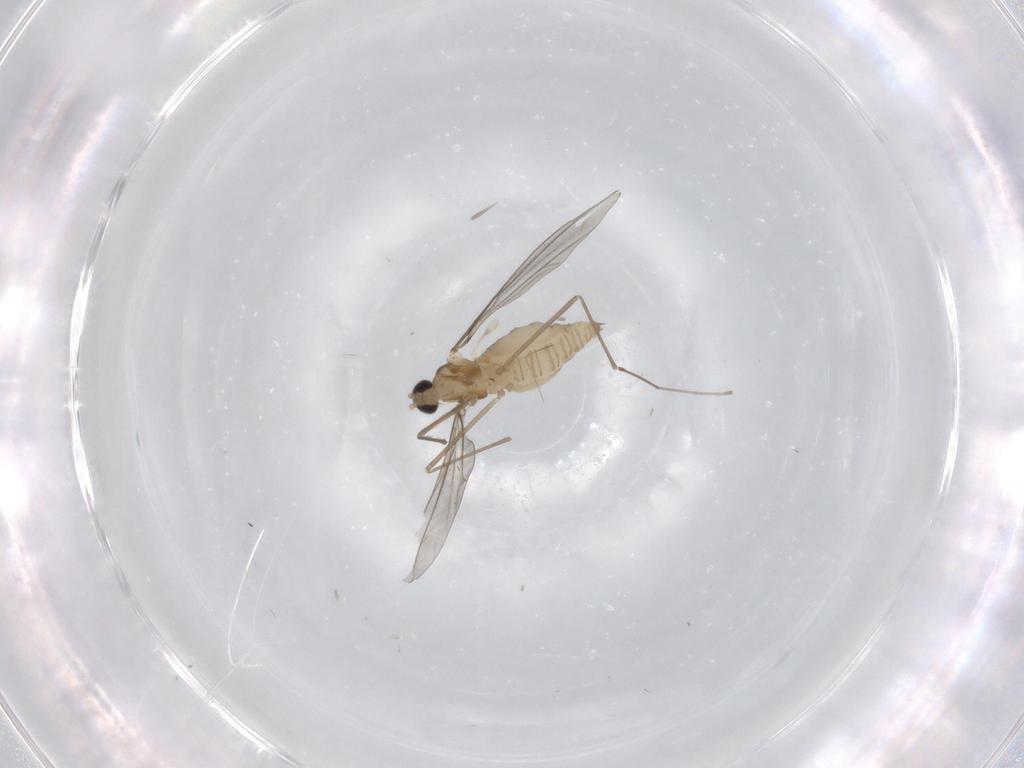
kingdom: Animalia
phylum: Arthropoda
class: Insecta
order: Diptera
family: Cecidomyiidae
